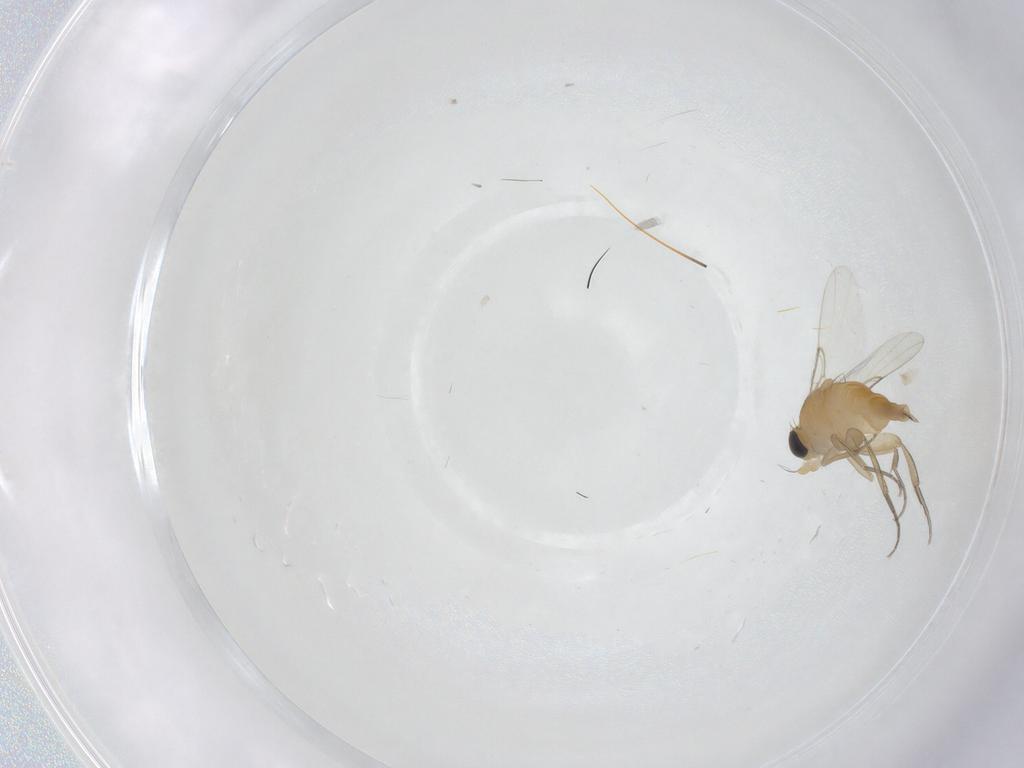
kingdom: Animalia
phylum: Arthropoda
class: Insecta
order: Diptera
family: Phoridae
